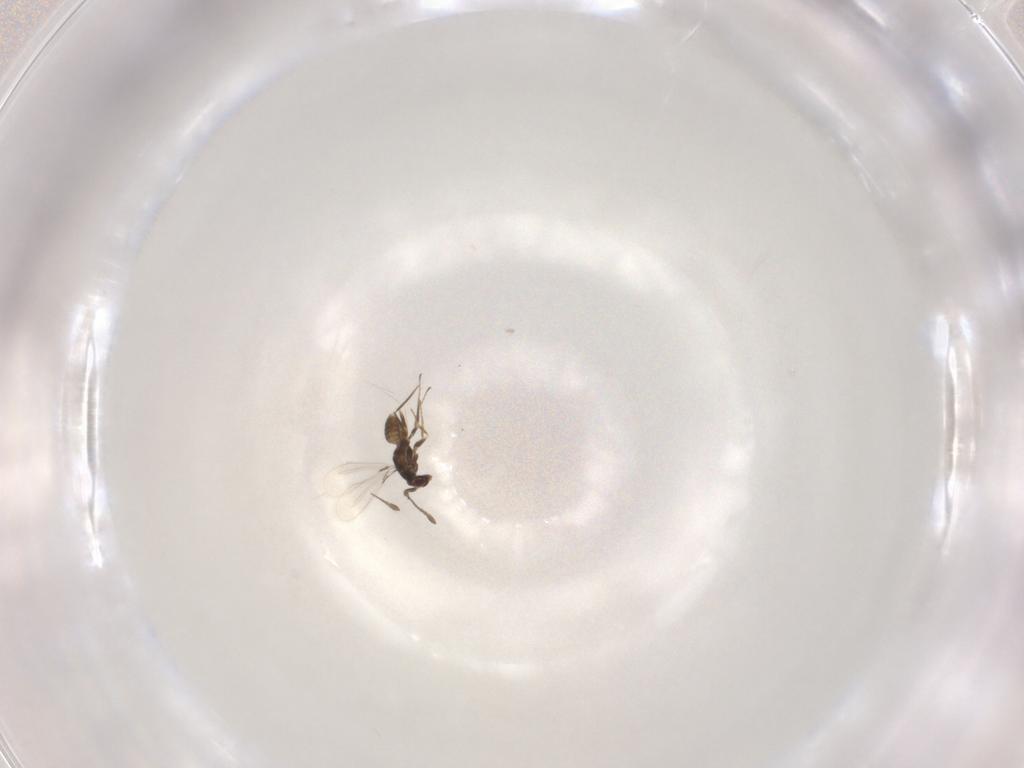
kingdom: Animalia
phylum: Arthropoda
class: Insecta
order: Hymenoptera
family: Mymaridae
